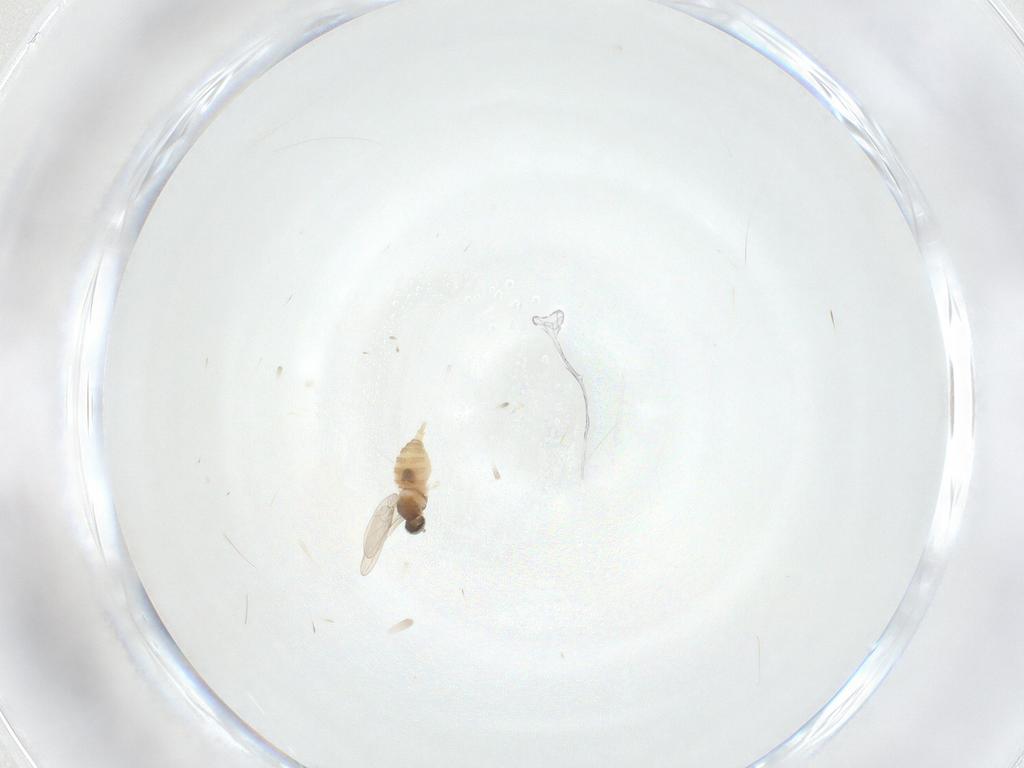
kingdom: Animalia
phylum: Arthropoda
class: Insecta
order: Diptera
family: Cecidomyiidae
